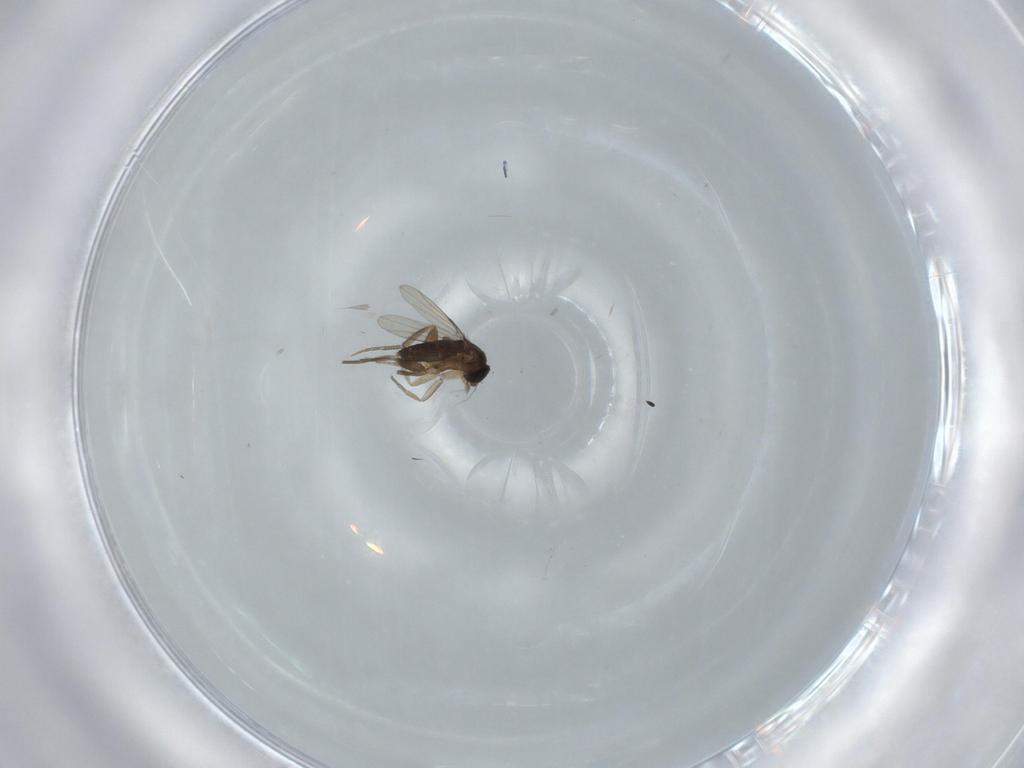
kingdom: Animalia
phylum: Arthropoda
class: Insecta
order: Diptera
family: Phoridae
